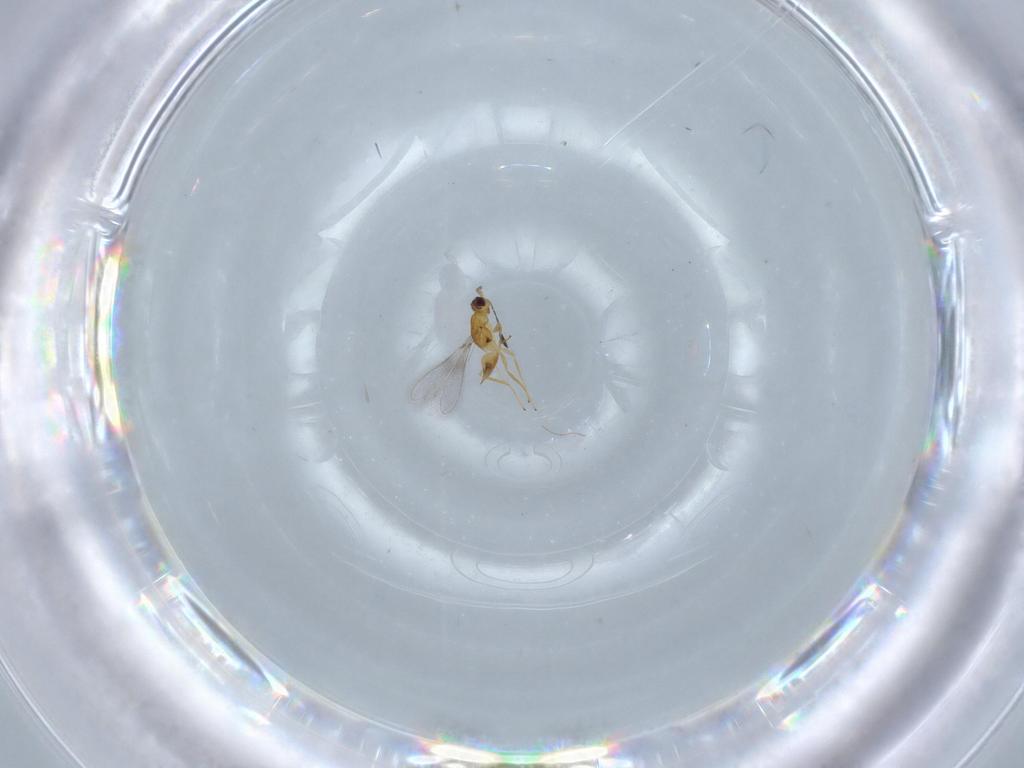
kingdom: Animalia
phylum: Arthropoda
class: Insecta
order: Hymenoptera
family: Mymaridae
